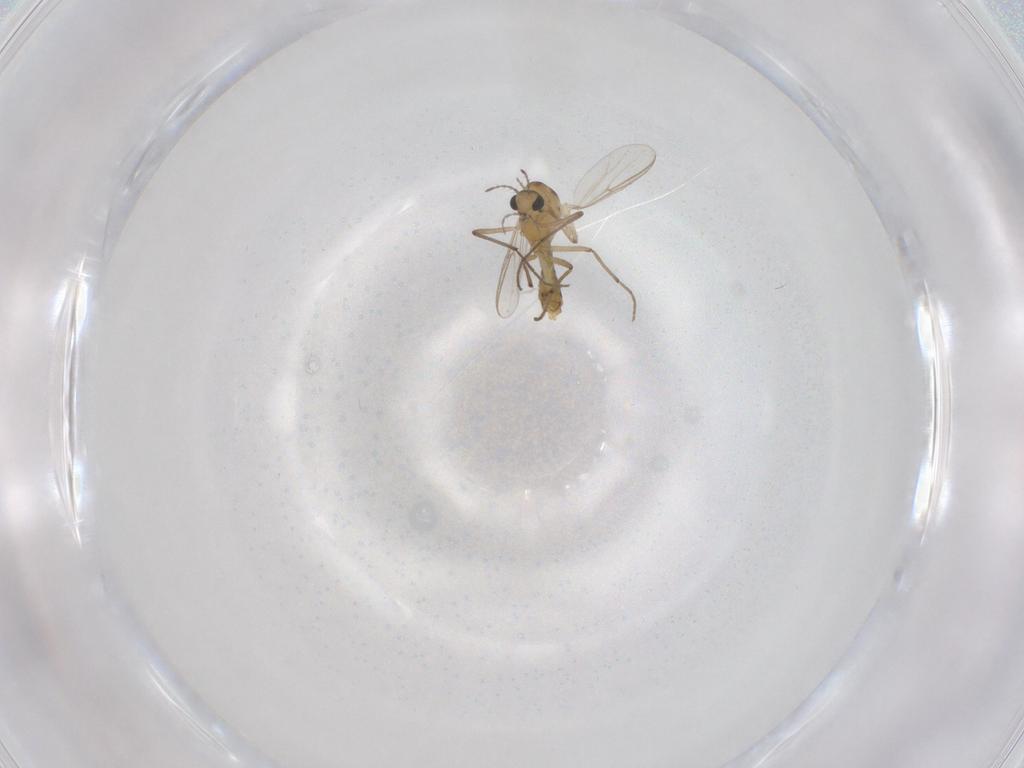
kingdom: Animalia
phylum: Arthropoda
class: Insecta
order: Diptera
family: Chironomidae
